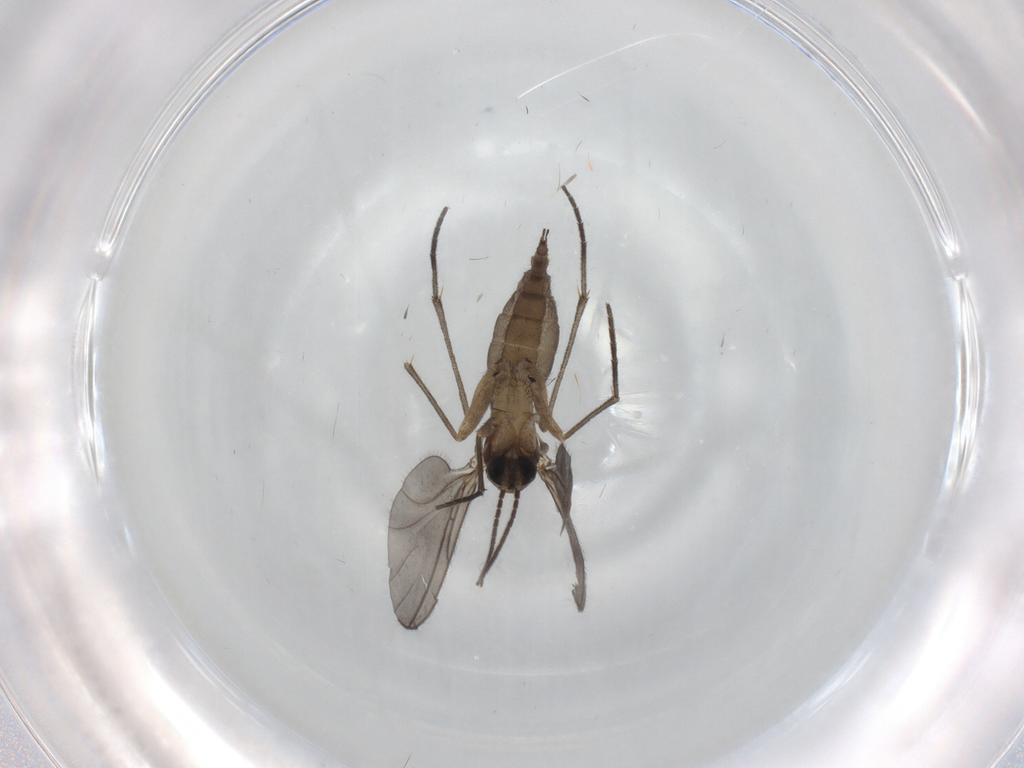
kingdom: Animalia
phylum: Arthropoda
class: Insecta
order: Diptera
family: Sciaridae
